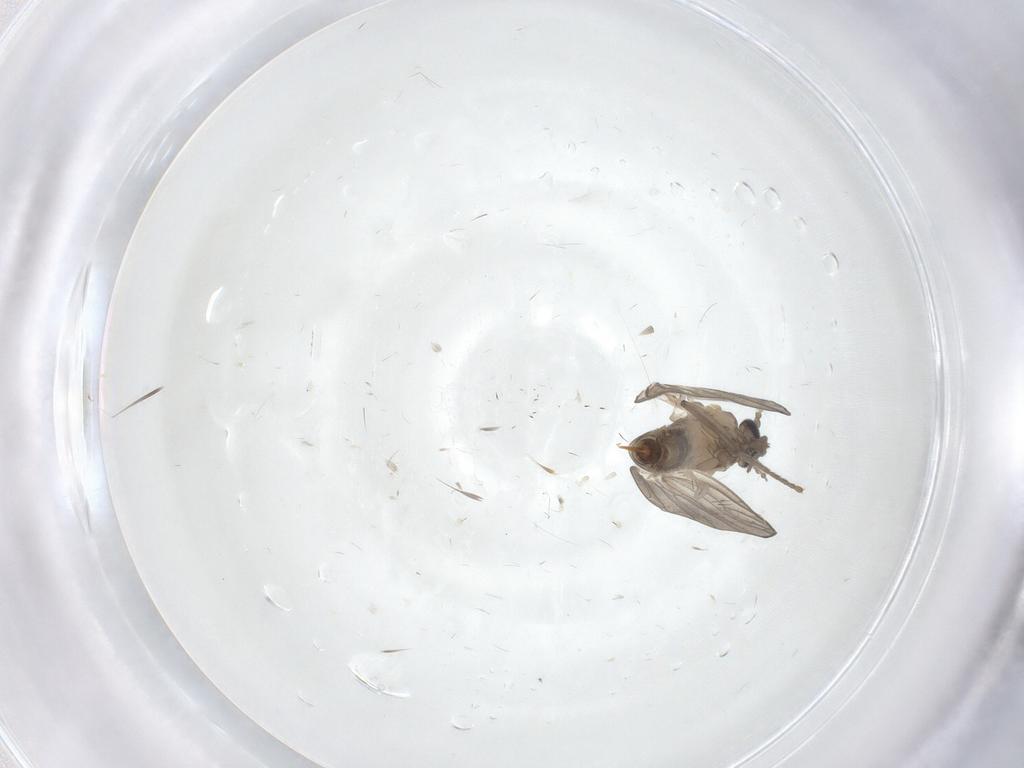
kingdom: Animalia
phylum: Arthropoda
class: Insecta
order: Diptera
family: Psychodidae
